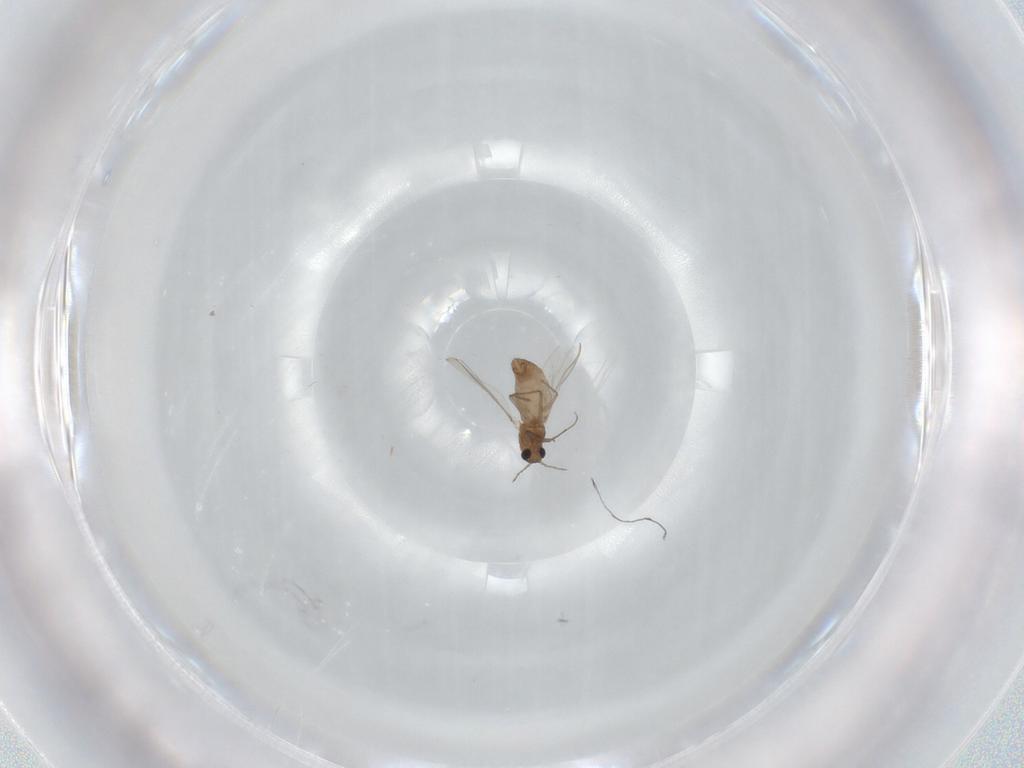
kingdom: Animalia
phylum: Arthropoda
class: Insecta
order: Diptera
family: Chironomidae
